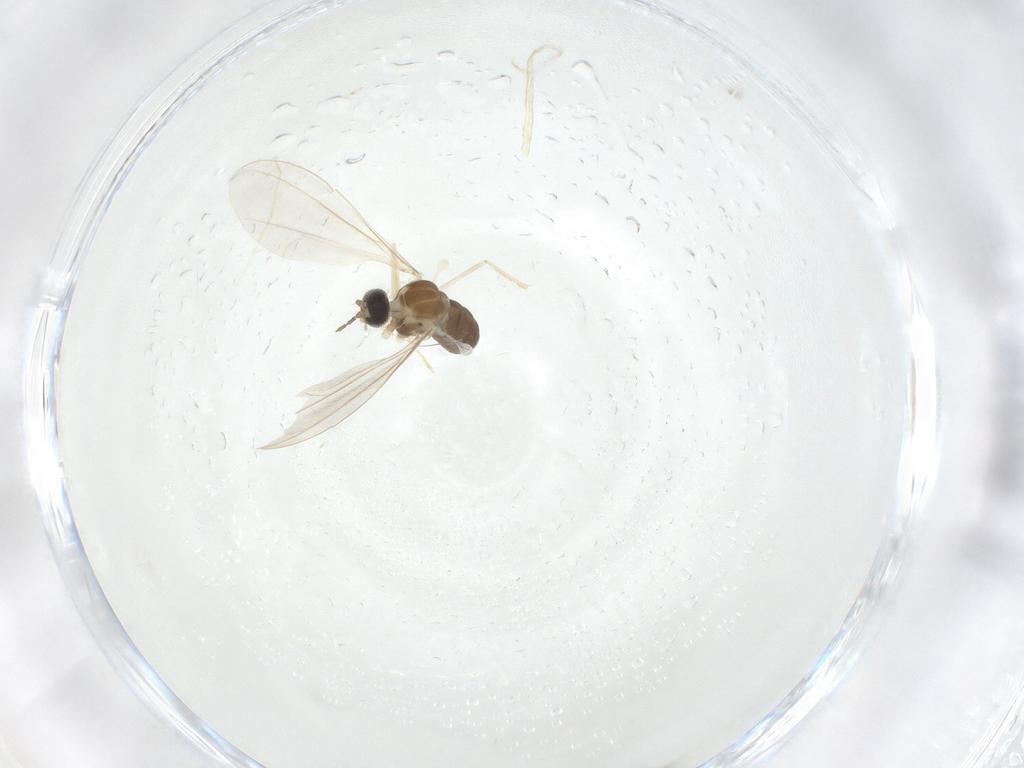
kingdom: Animalia
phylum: Arthropoda
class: Insecta
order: Diptera
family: Cecidomyiidae
